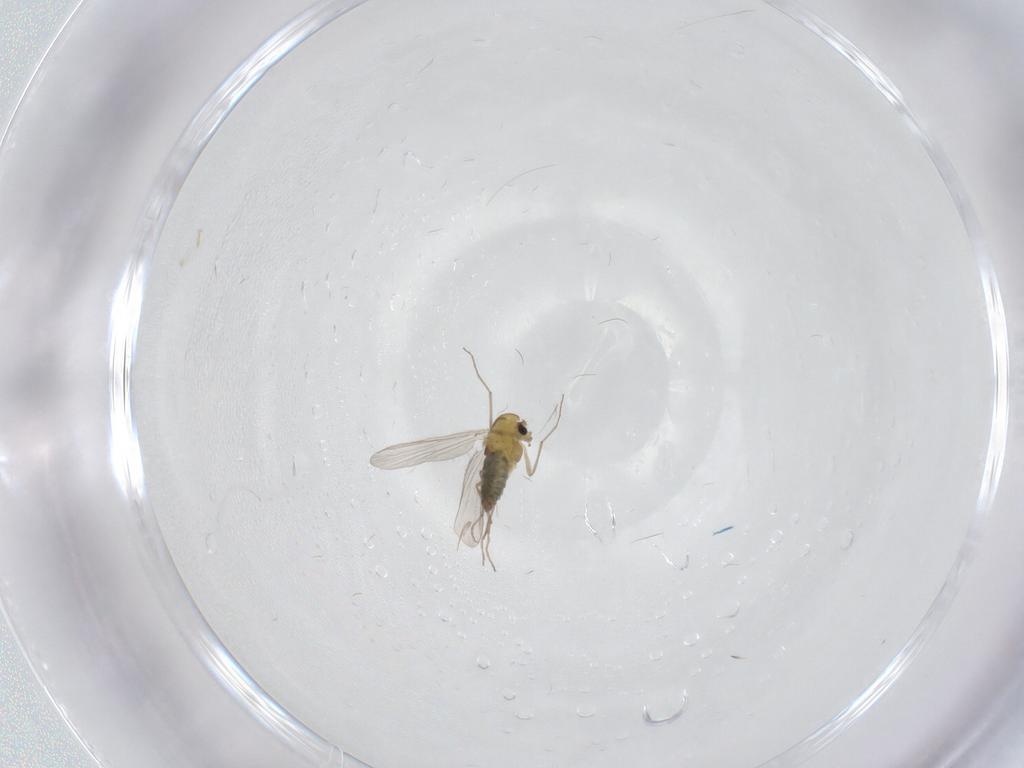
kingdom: Animalia
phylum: Arthropoda
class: Insecta
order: Diptera
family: Chironomidae
